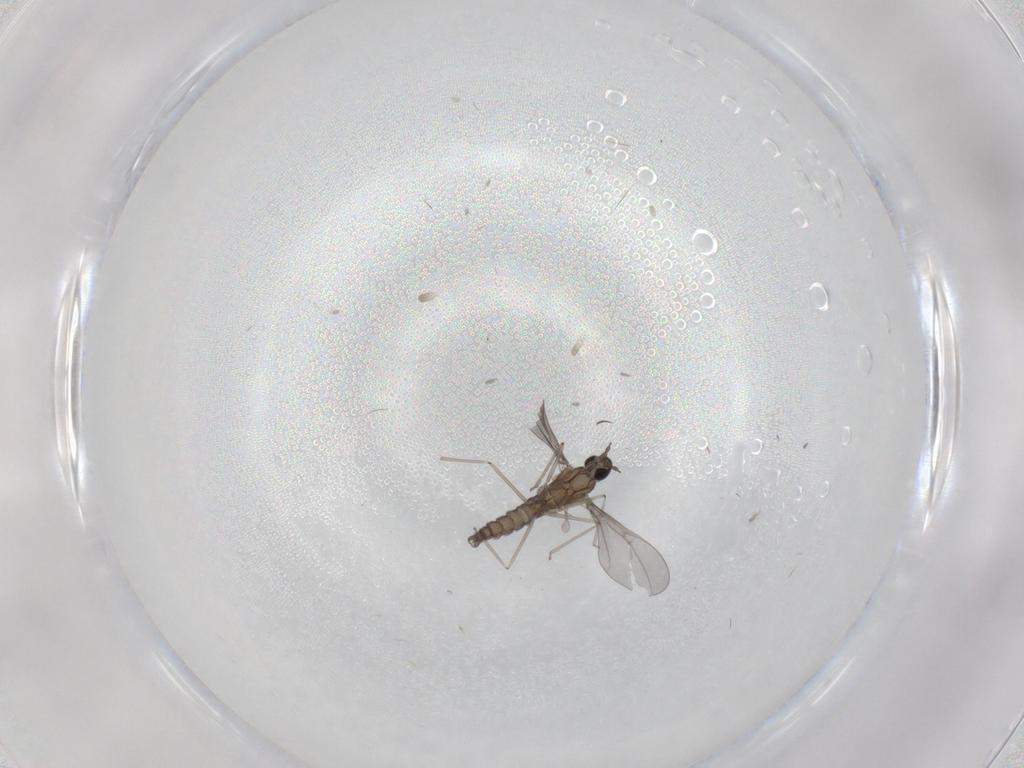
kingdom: Animalia
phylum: Arthropoda
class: Insecta
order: Diptera
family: Cecidomyiidae
